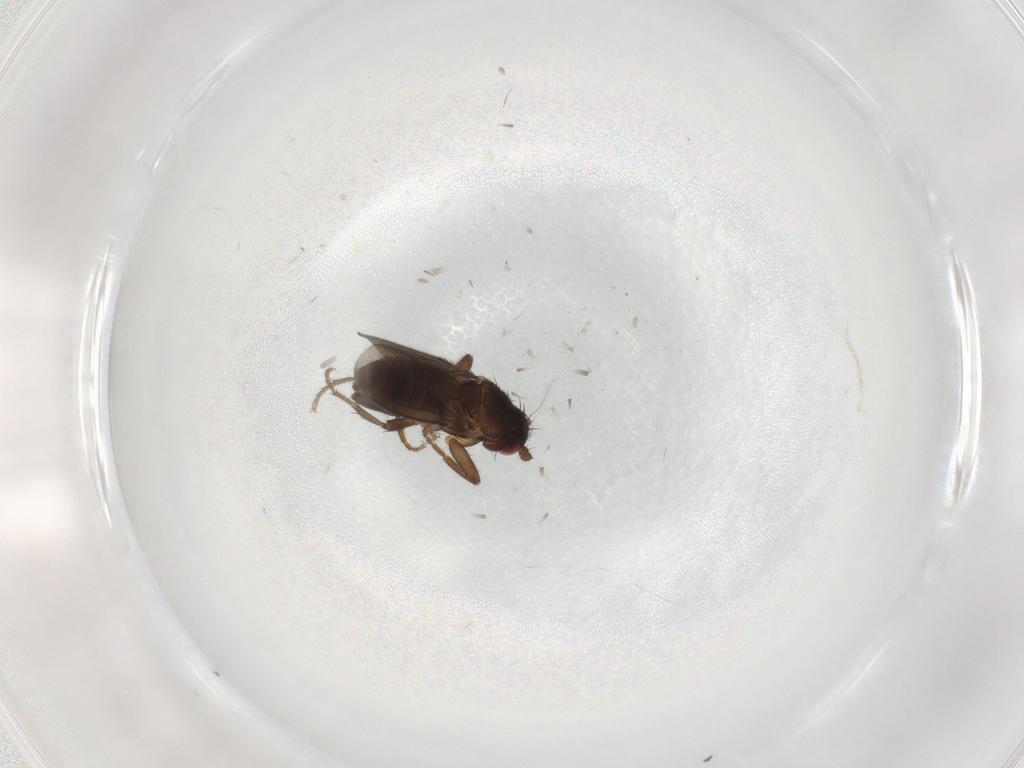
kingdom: Animalia
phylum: Arthropoda
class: Insecta
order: Diptera
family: Sphaeroceridae
